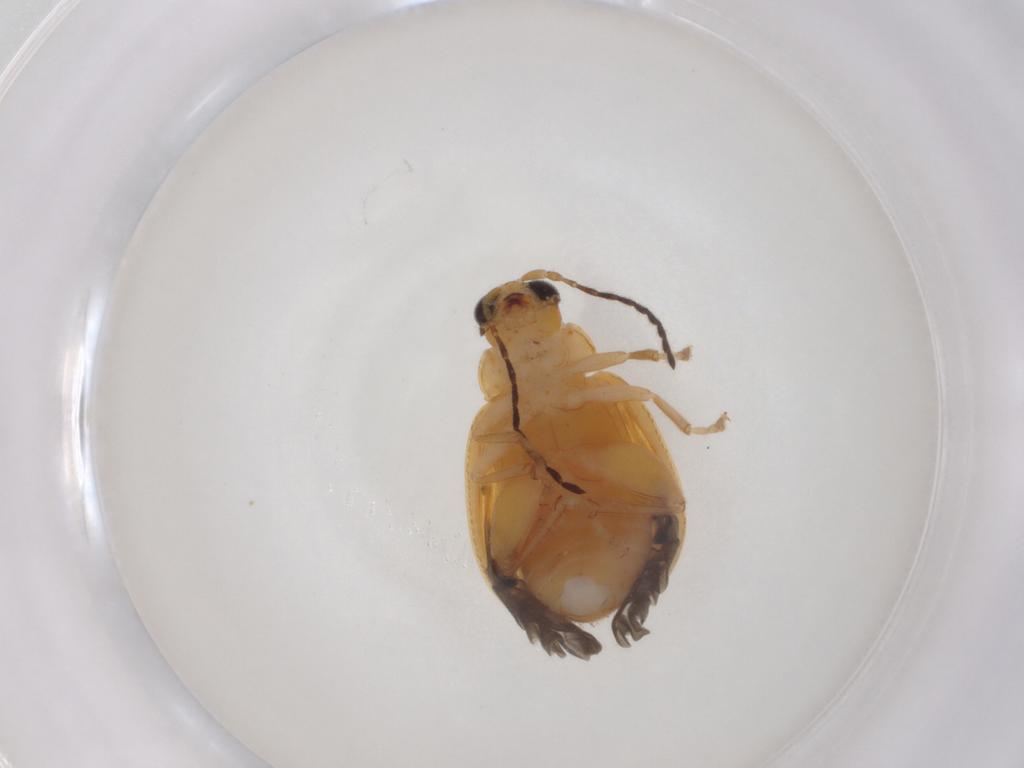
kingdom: Animalia
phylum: Arthropoda
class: Insecta
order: Coleoptera
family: Chrysomelidae
